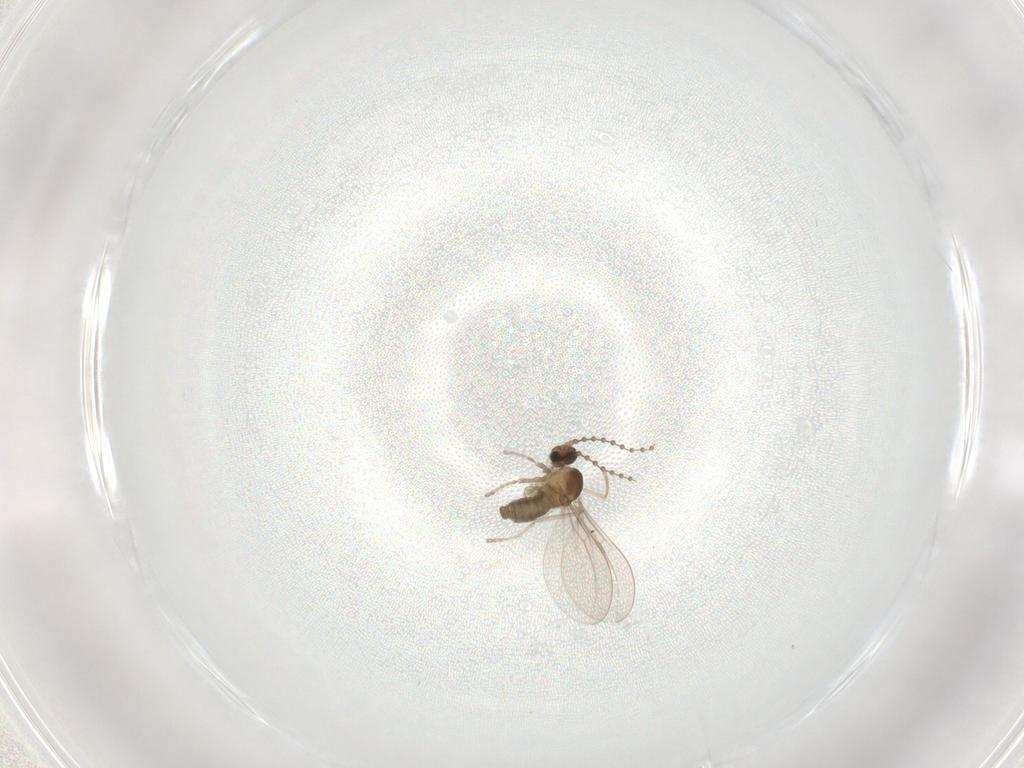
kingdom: Animalia
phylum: Arthropoda
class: Insecta
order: Diptera
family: Cecidomyiidae
